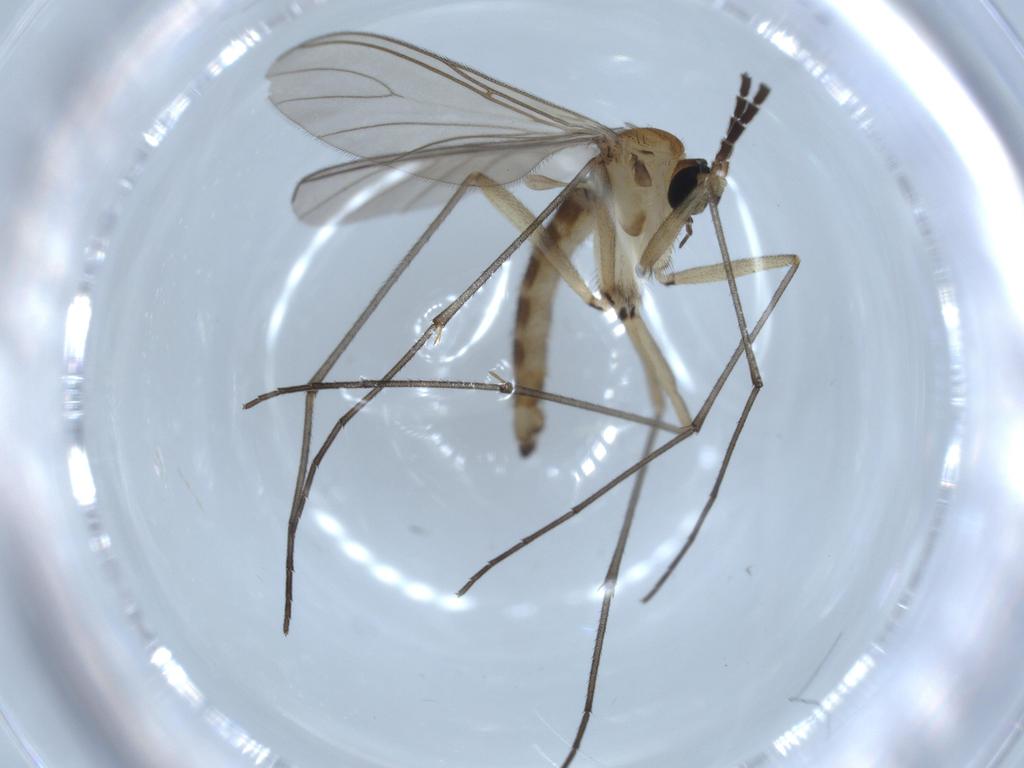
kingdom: Animalia
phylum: Arthropoda
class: Insecta
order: Diptera
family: Sciaridae
